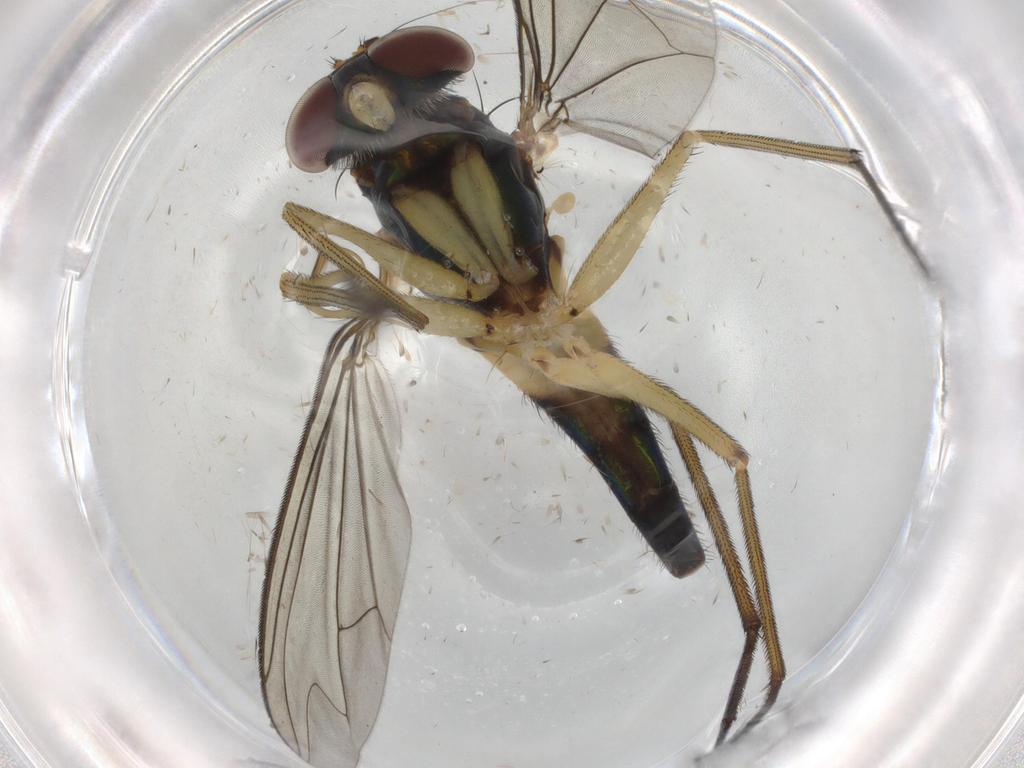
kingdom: Animalia
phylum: Arthropoda
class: Insecta
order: Diptera
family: Dolichopodidae
